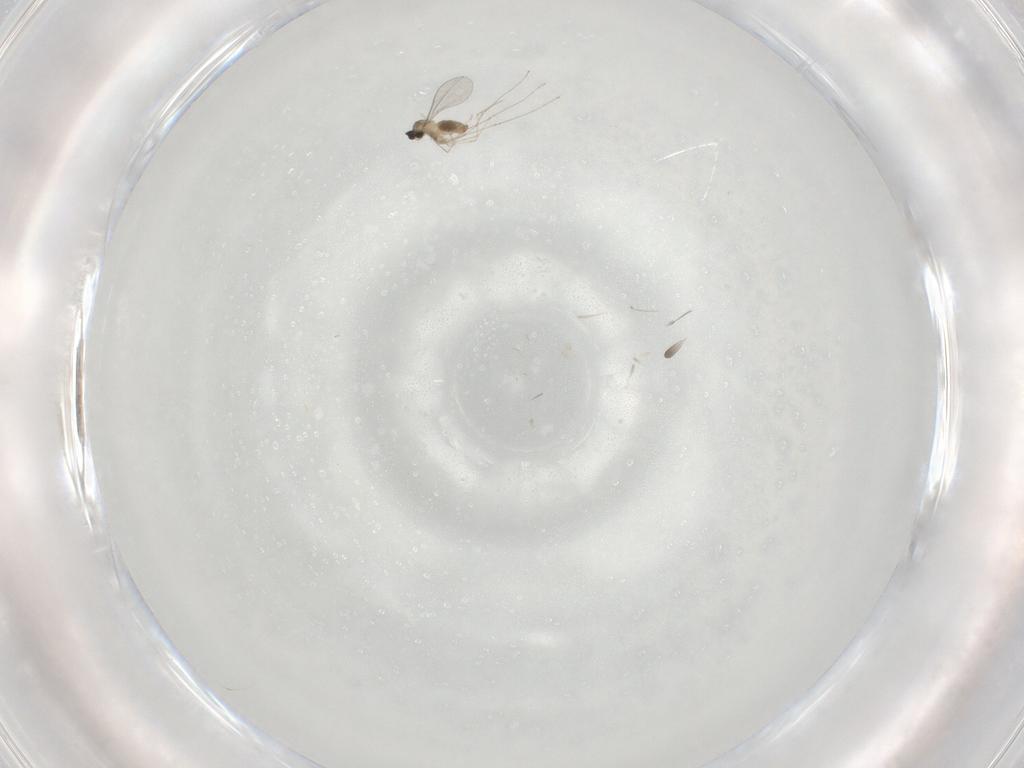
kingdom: Animalia
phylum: Arthropoda
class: Insecta
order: Diptera
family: Cecidomyiidae
